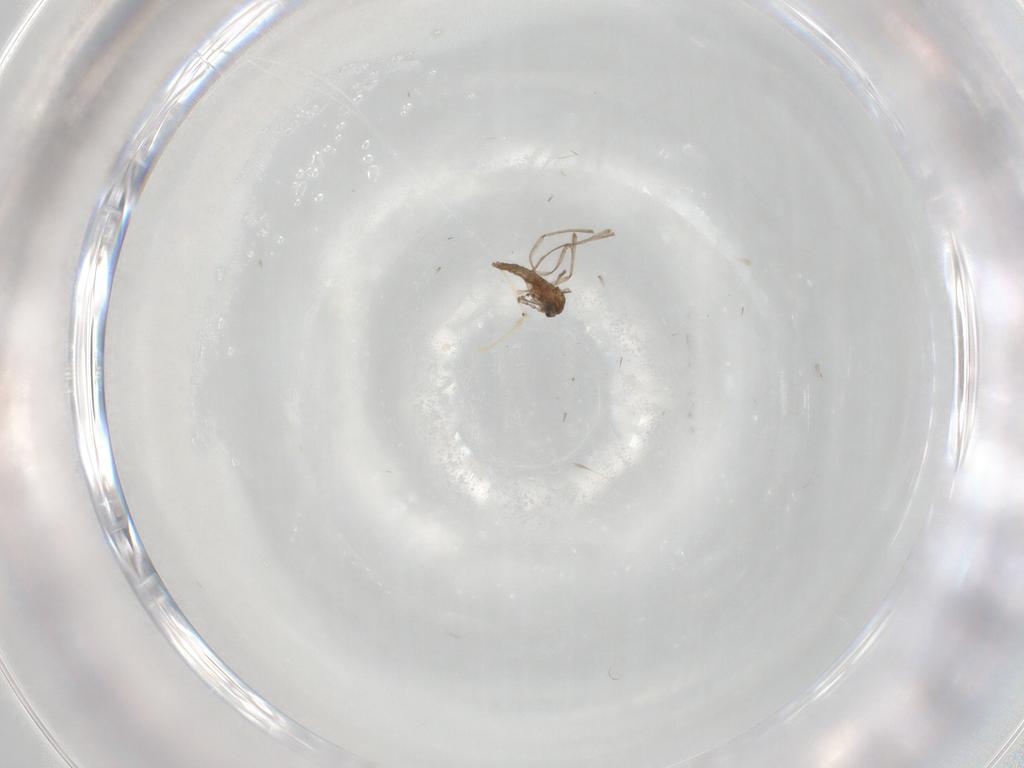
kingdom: Animalia
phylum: Arthropoda
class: Insecta
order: Diptera
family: Cecidomyiidae
